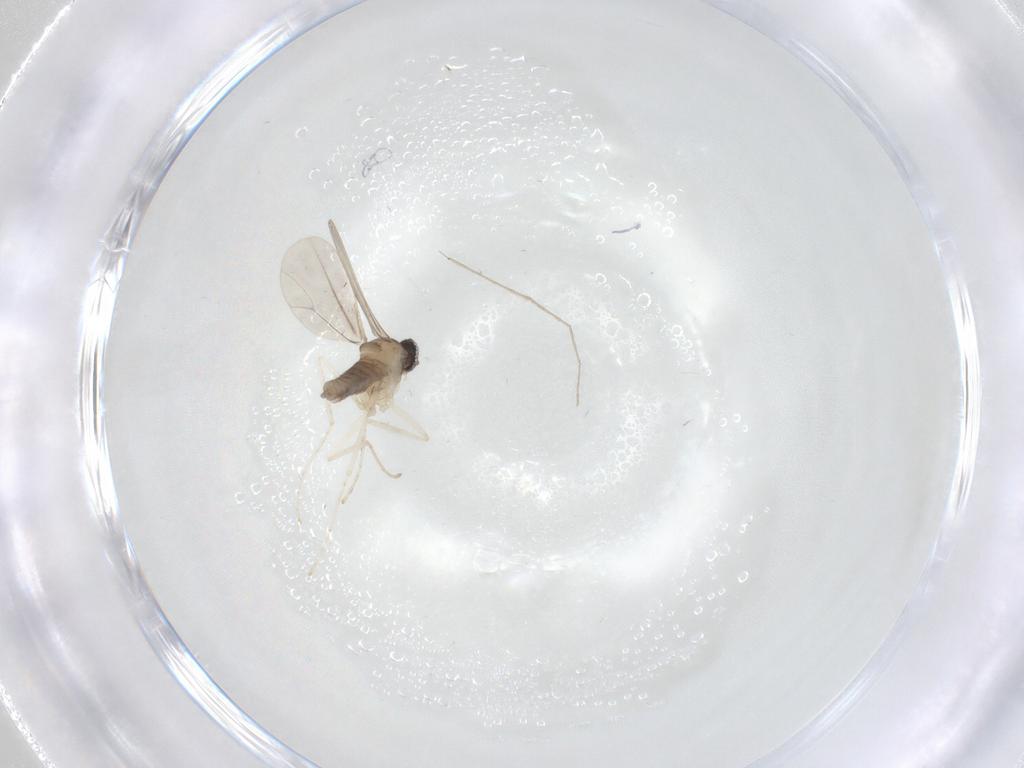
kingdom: Animalia
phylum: Arthropoda
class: Insecta
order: Diptera
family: Cecidomyiidae
